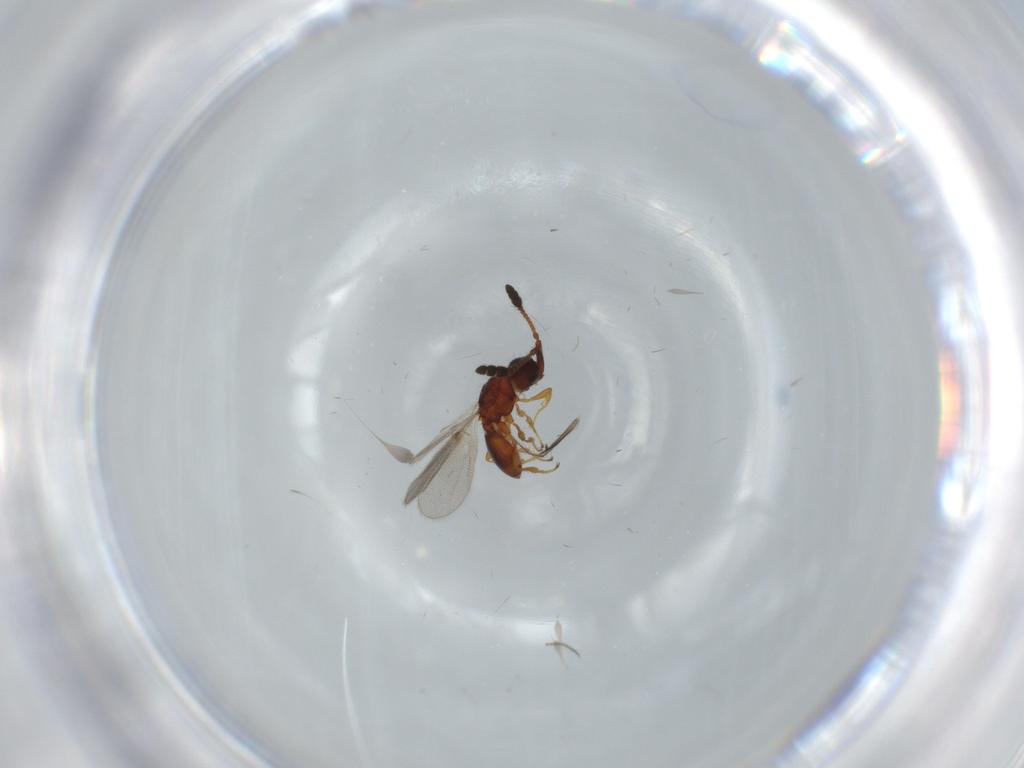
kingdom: Animalia
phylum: Arthropoda
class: Insecta
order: Hymenoptera
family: Diapriidae
